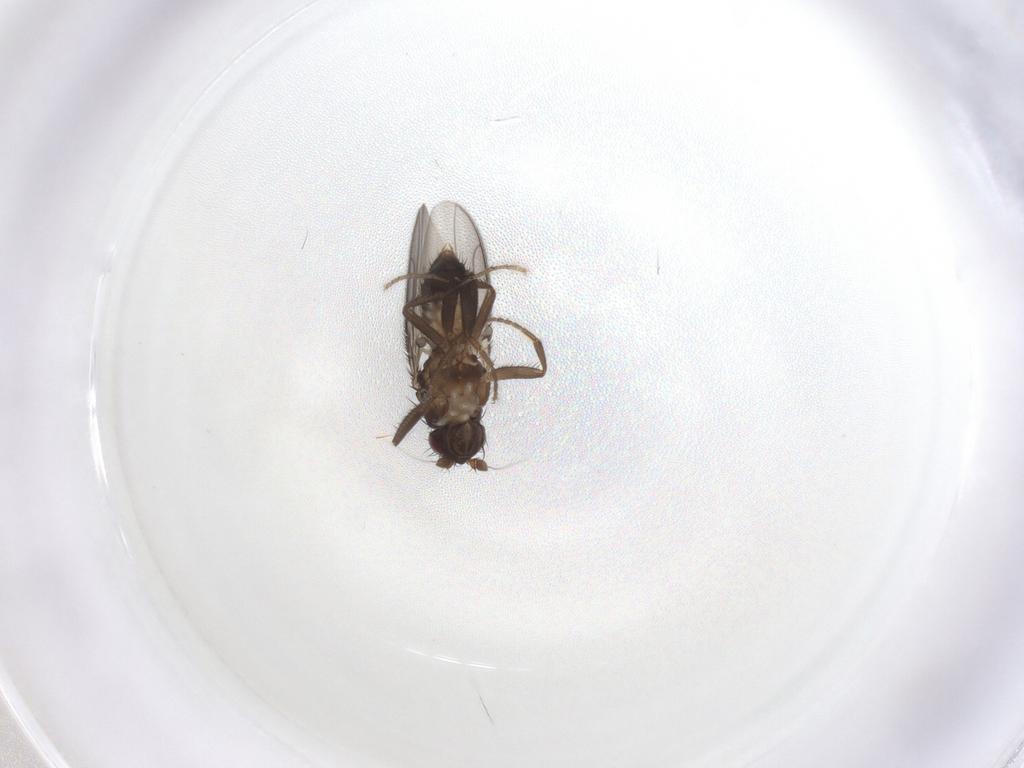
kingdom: Animalia
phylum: Arthropoda
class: Insecta
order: Diptera
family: Sphaeroceridae
